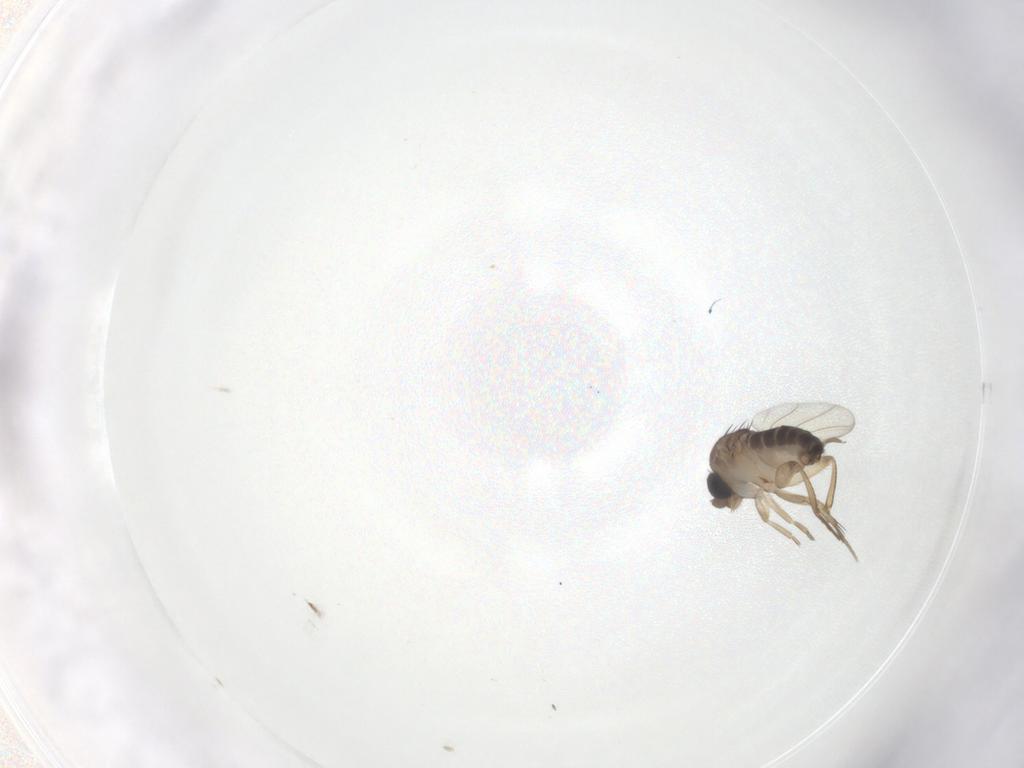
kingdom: Animalia
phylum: Arthropoda
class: Insecta
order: Diptera
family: Phoridae
